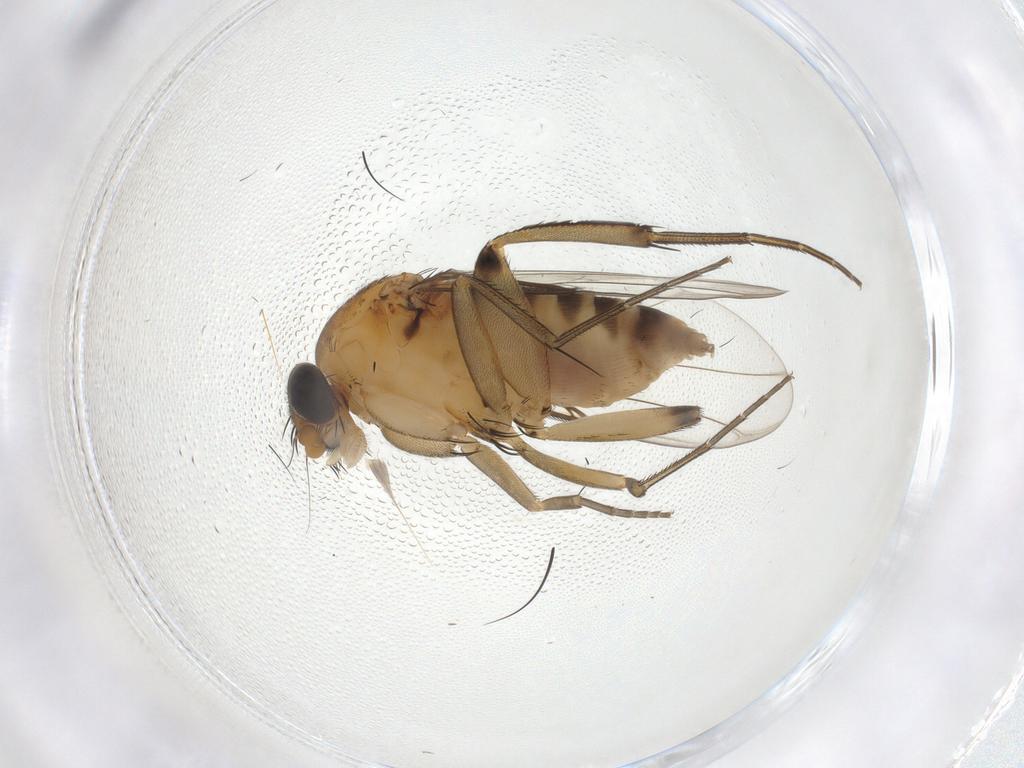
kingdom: Animalia
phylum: Arthropoda
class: Insecta
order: Diptera
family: Phoridae
